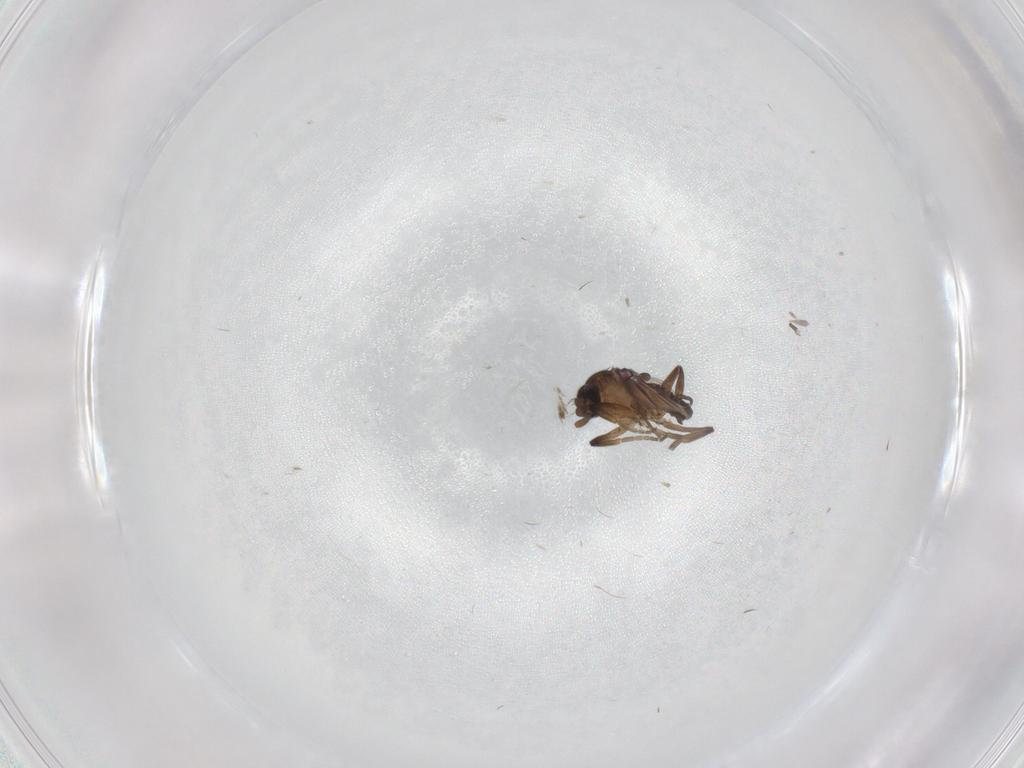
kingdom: Animalia
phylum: Arthropoda
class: Insecta
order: Diptera
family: Phoridae
